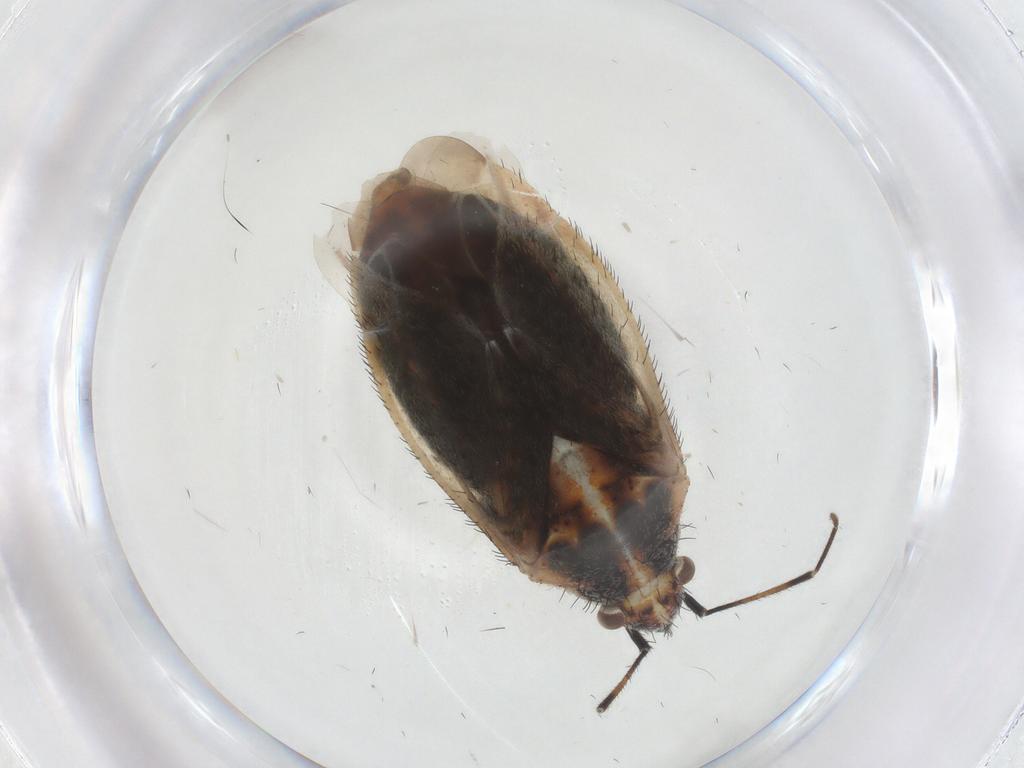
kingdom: Animalia
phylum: Arthropoda
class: Insecta
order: Hemiptera
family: Miridae
